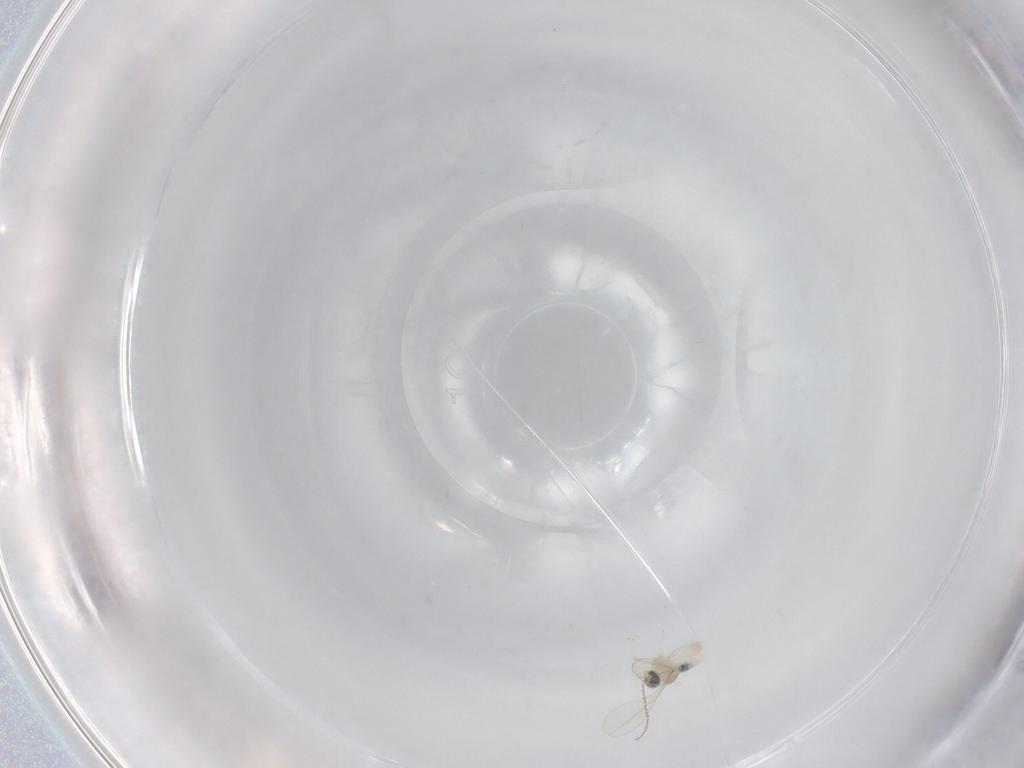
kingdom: Animalia
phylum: Arthropoda
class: Insecta
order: Diptera
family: Cecidomyiidae
